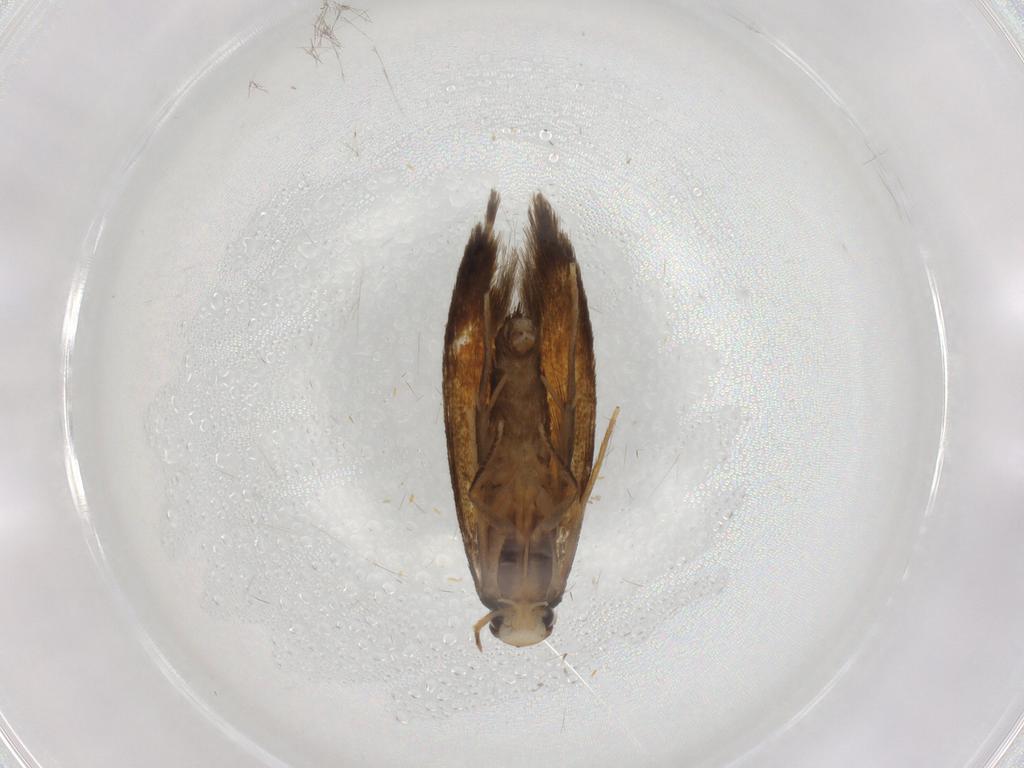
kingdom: Animalia
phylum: Arthropoda
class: Insecta
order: Lepidoptera
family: Tineidae
